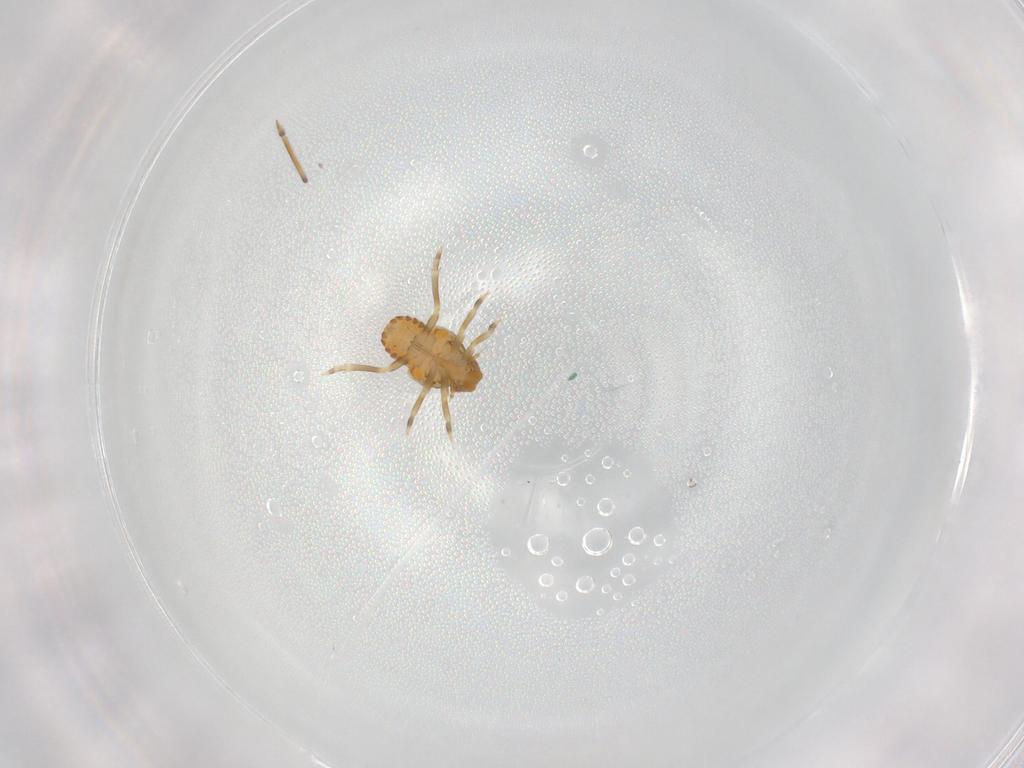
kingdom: Animalia
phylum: Arthropoda
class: Insecta
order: Hemiptera
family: Flatidae
